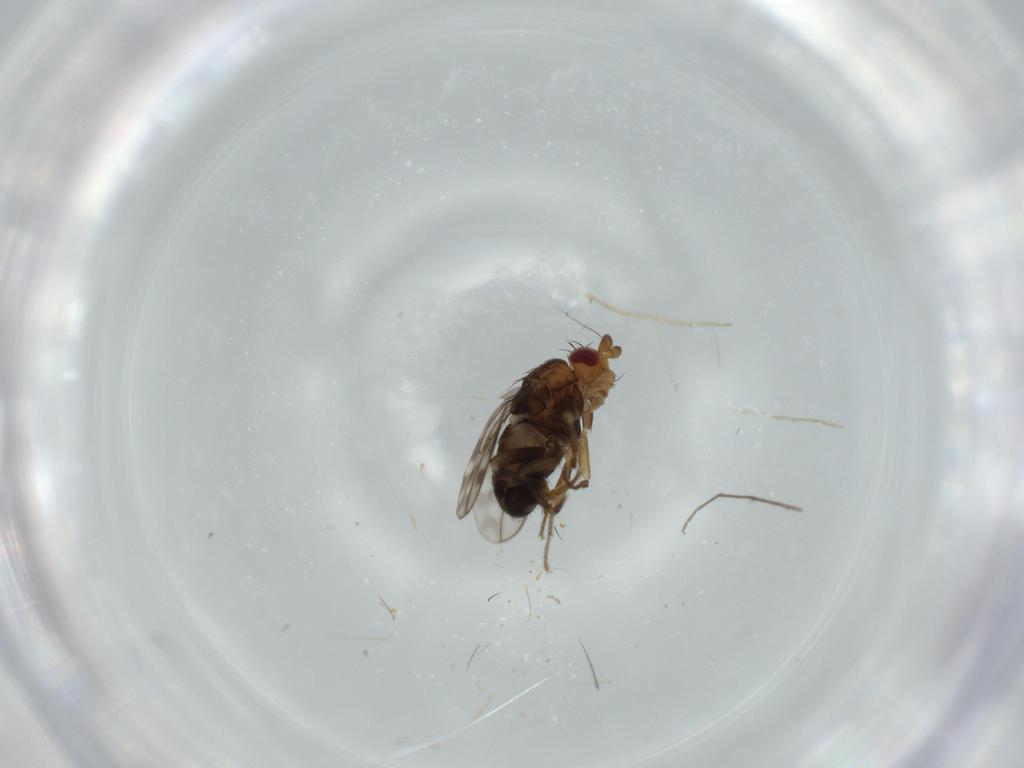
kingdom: Animalia
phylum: Arthropoda
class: Insecta
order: Diptera
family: Sphaeroceridae
